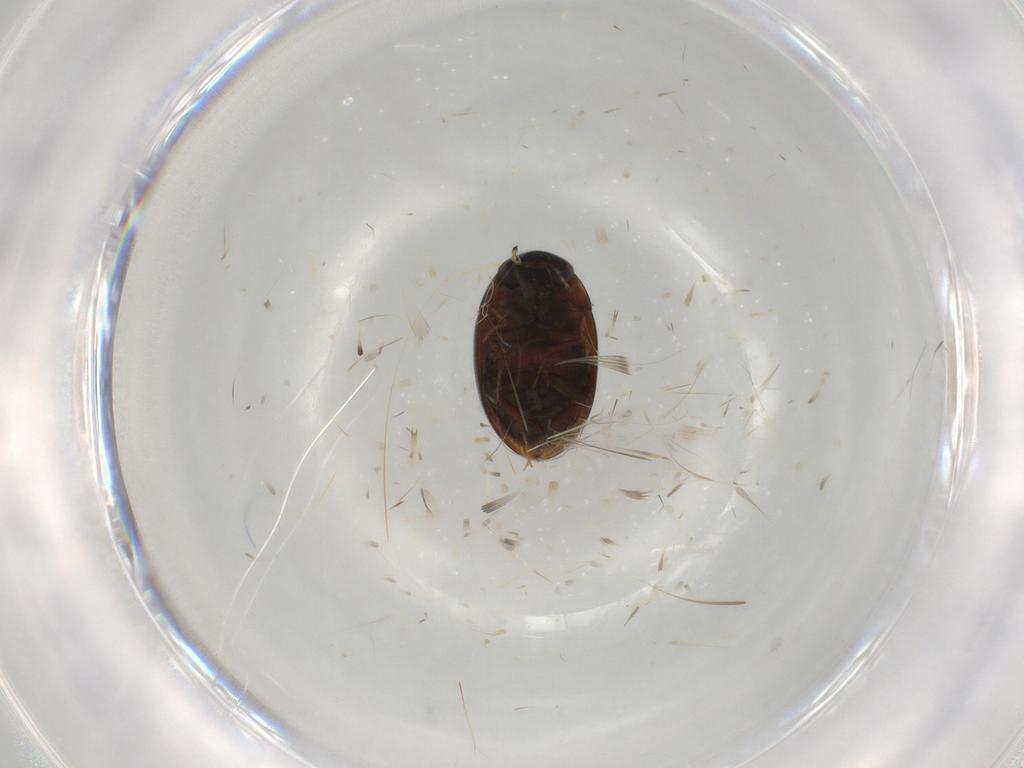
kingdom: Animalia
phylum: Arthropoda
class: Insecta
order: Coleoptera
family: Hydrophilidae
